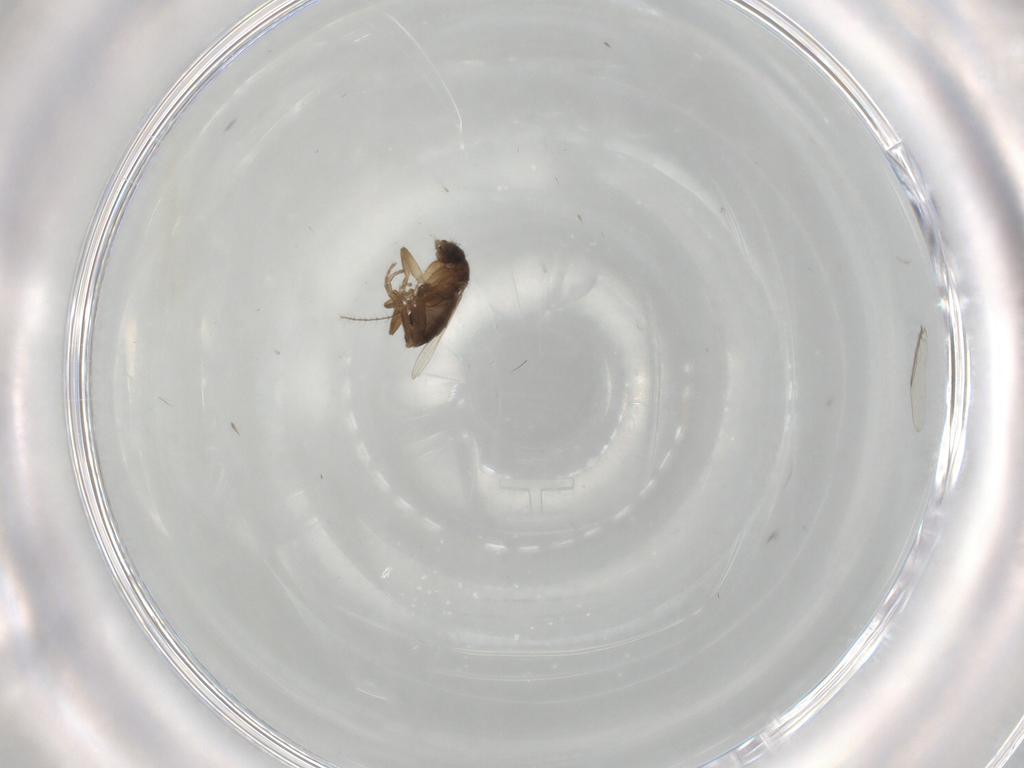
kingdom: Animalia
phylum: Arthropoda
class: Insecta
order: Diptera
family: Phoridae
